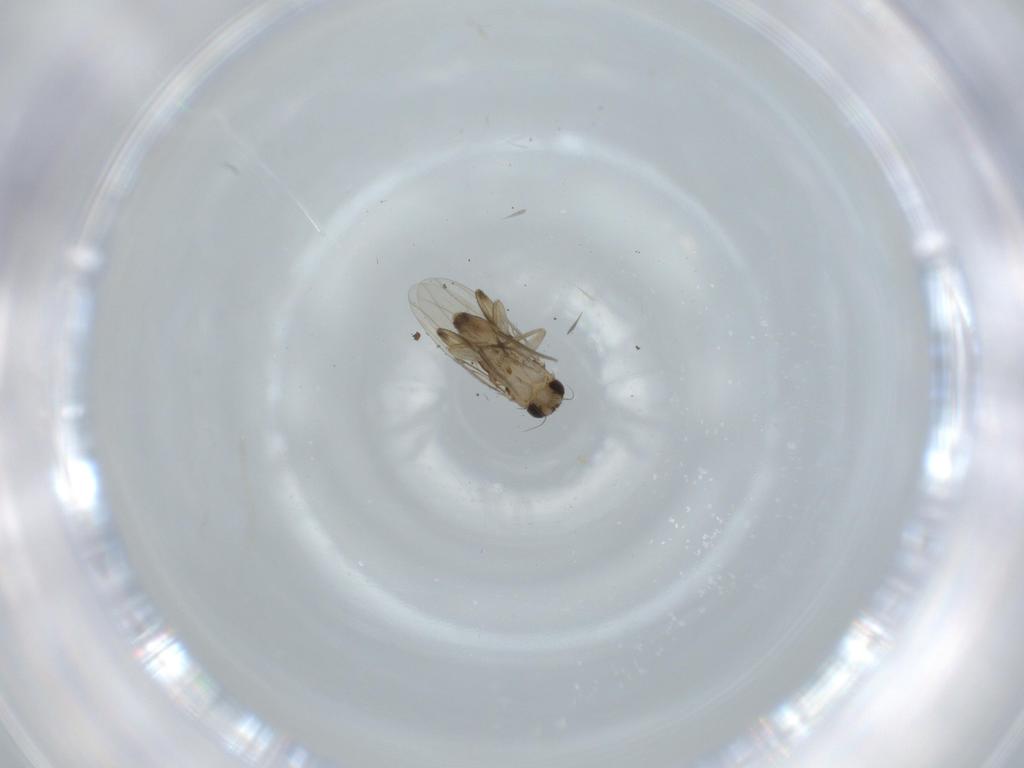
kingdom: Animalia
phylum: Arthropoda
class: Insecta
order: Diptera
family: Phoridae
